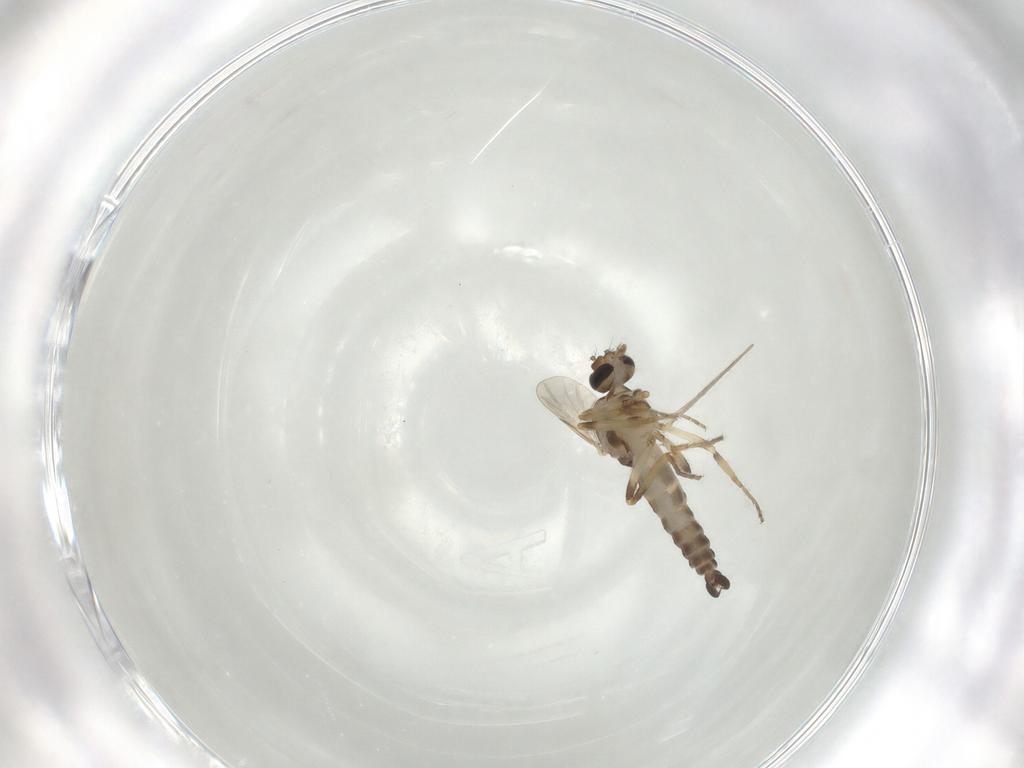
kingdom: Animalia
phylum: Arthropoda
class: Insecta
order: Diptera
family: Ceratopogonidae
